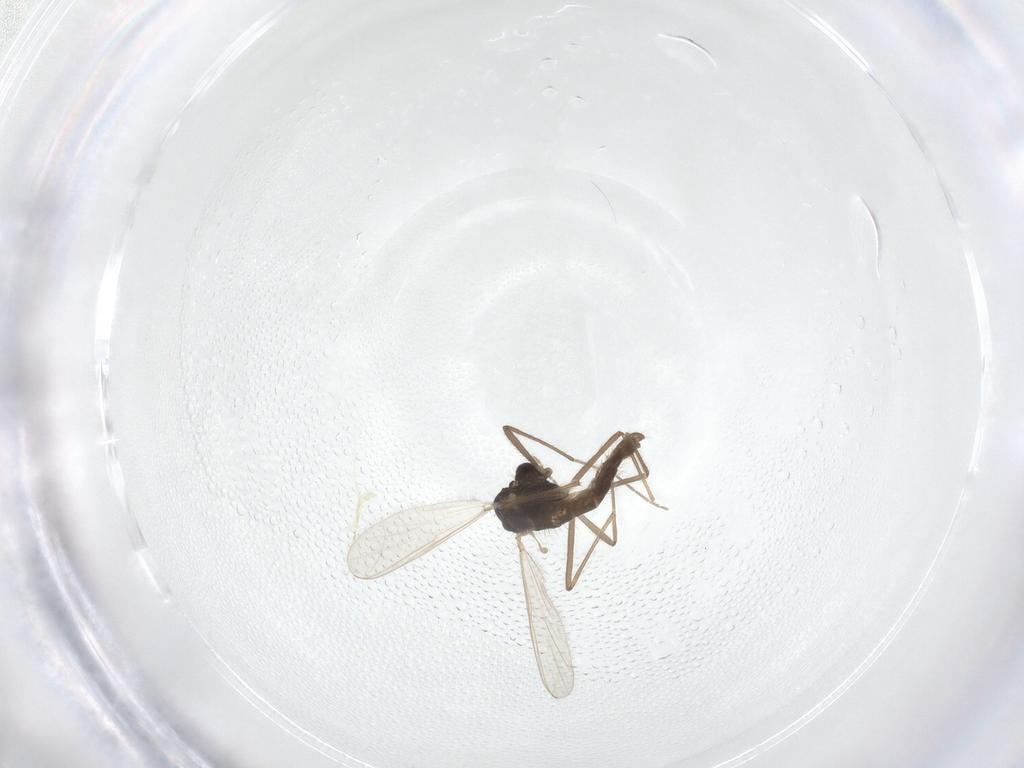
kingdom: Animalia
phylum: Arthropoda
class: Insecta
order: Diptera
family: Chironomidae
